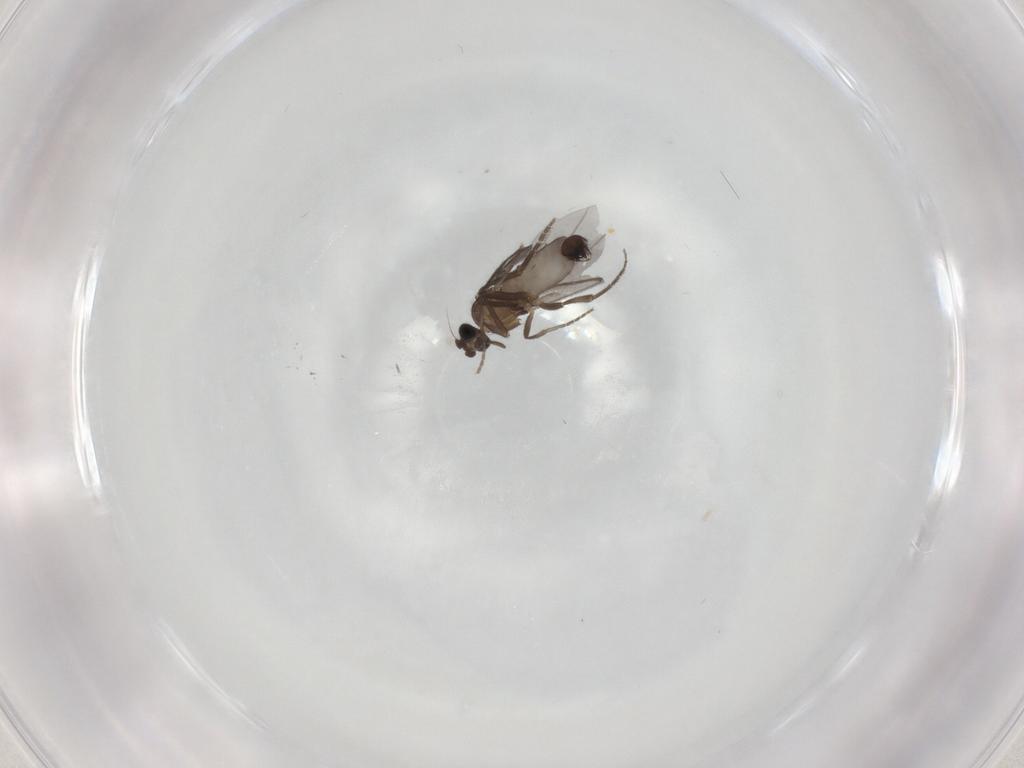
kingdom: Animalia
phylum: Arthropoda
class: Insecta
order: Diptera
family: Phoridae
